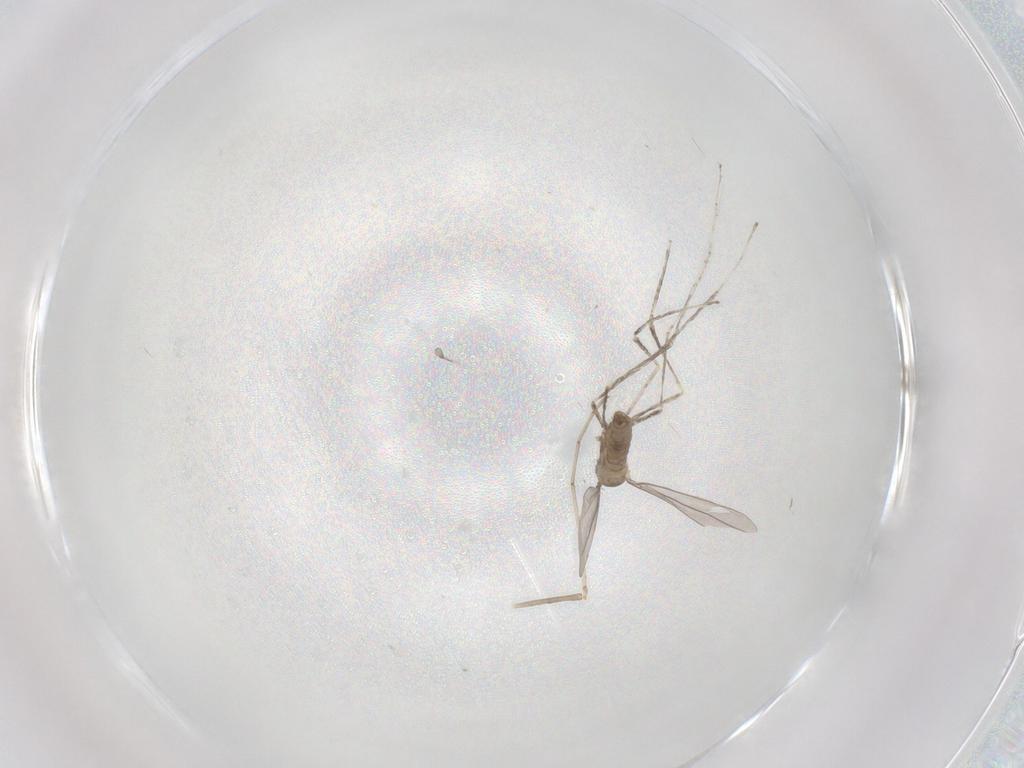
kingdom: Animalia
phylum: Arthropoda
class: Insecta
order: Diptera
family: Cecidomyiidae
